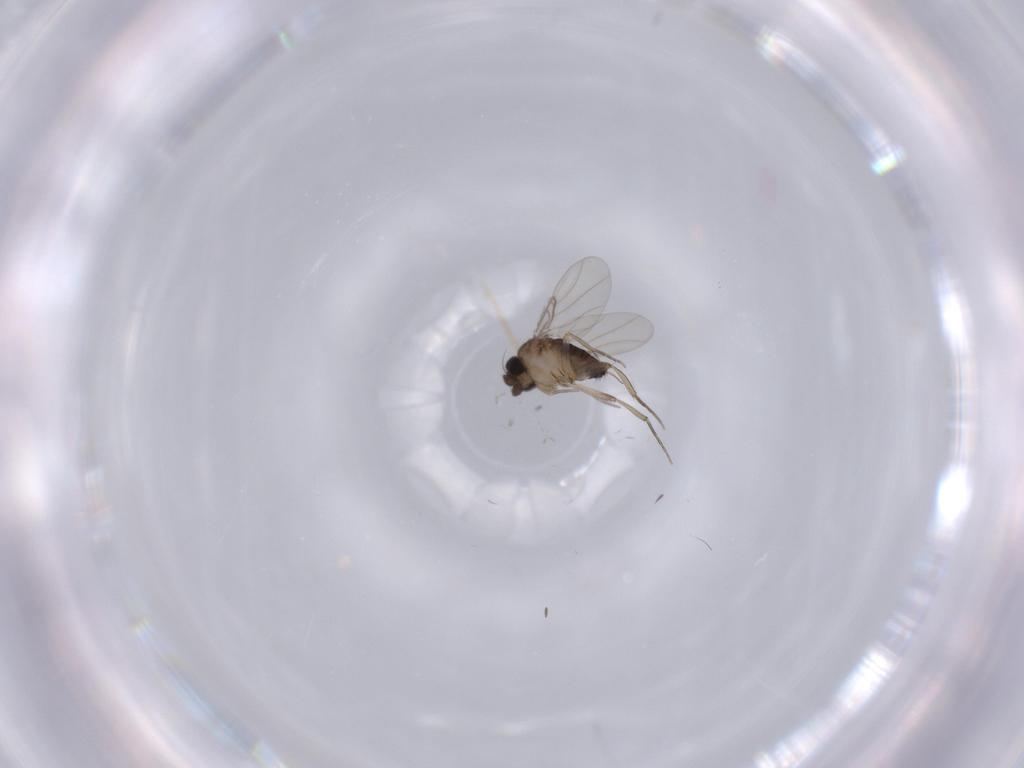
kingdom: Animalia
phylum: Arthropoda
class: Insecta
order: Diptera
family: Phoridae
